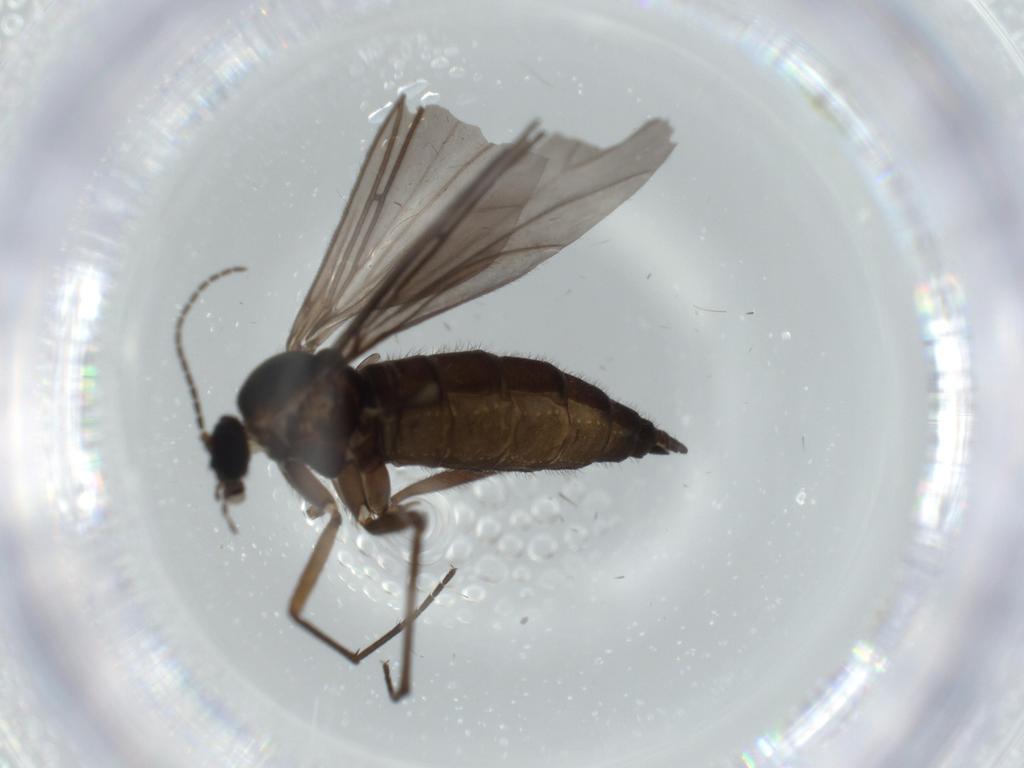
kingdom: Animalia
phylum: Arthropoda
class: Insecta
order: Diptera
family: Sciaridae
